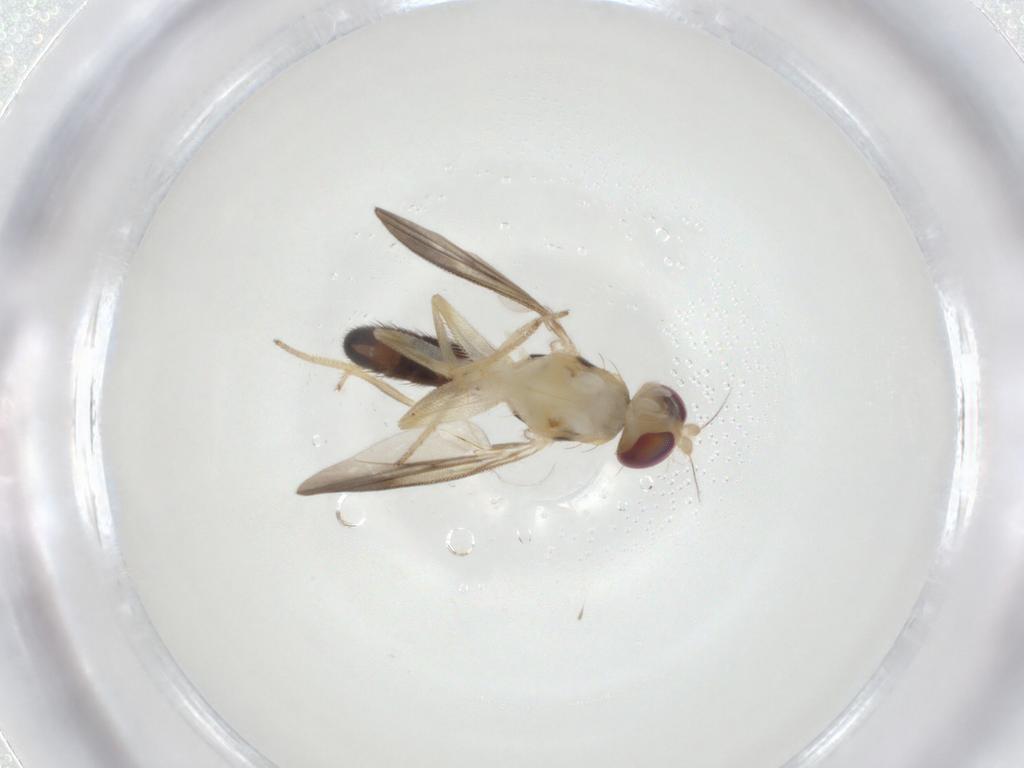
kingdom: Animalia
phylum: Arthropoda
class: Insecta
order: Diptera
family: Clusiidae
